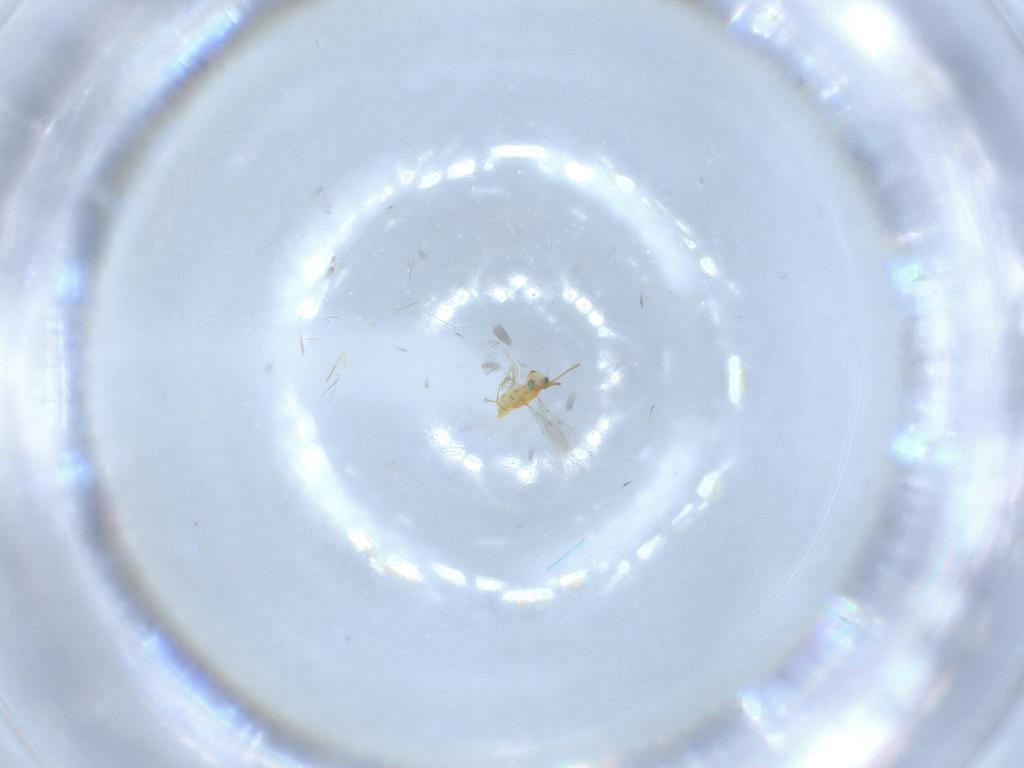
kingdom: Animalia
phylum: Arthropoda
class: Insecta
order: Hymenoptera
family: Aphelinidae
